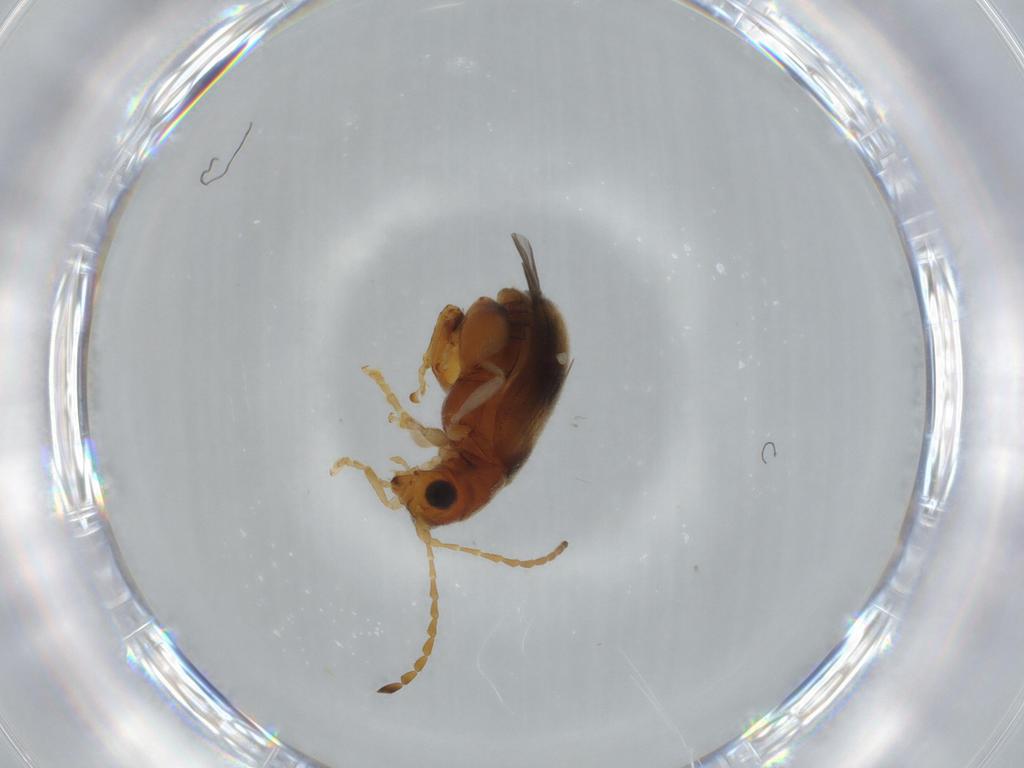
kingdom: Animalia
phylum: Arthropoda
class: Insecta
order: Coleoptera
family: Chrysomelidae
